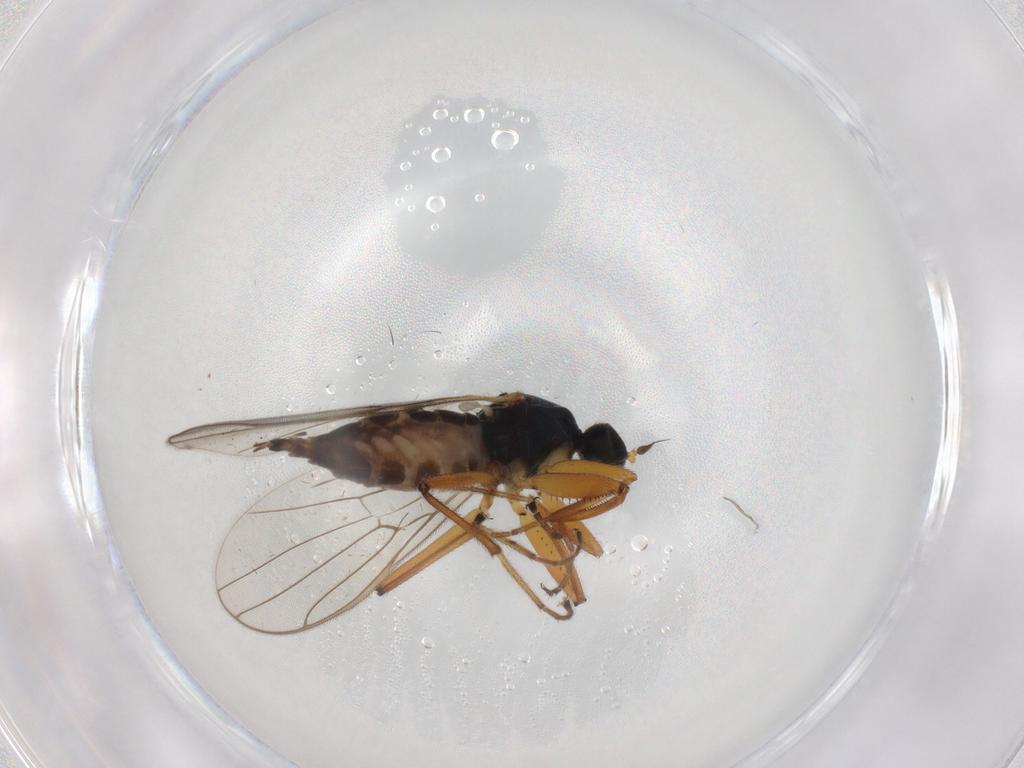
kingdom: Animalia
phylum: Arthropoda
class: Insecta
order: Diptera
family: Hybotidae
